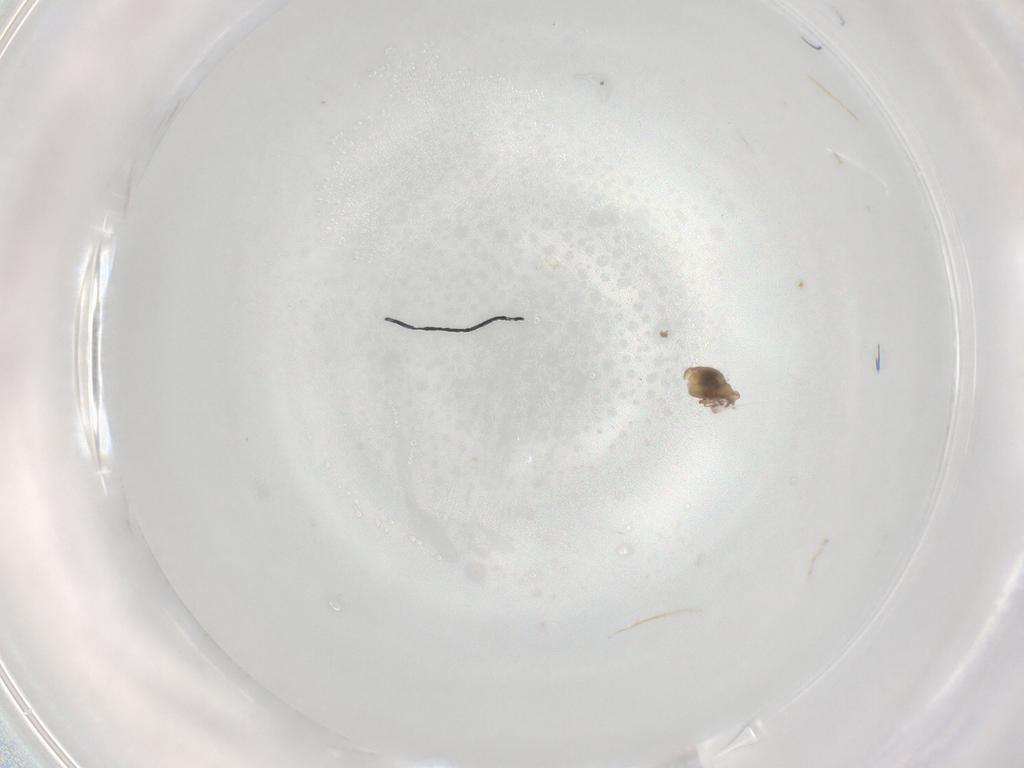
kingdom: Animalia
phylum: Arthropoda
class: Arachnida
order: Sarcoptiformes
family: Oribatulidae
